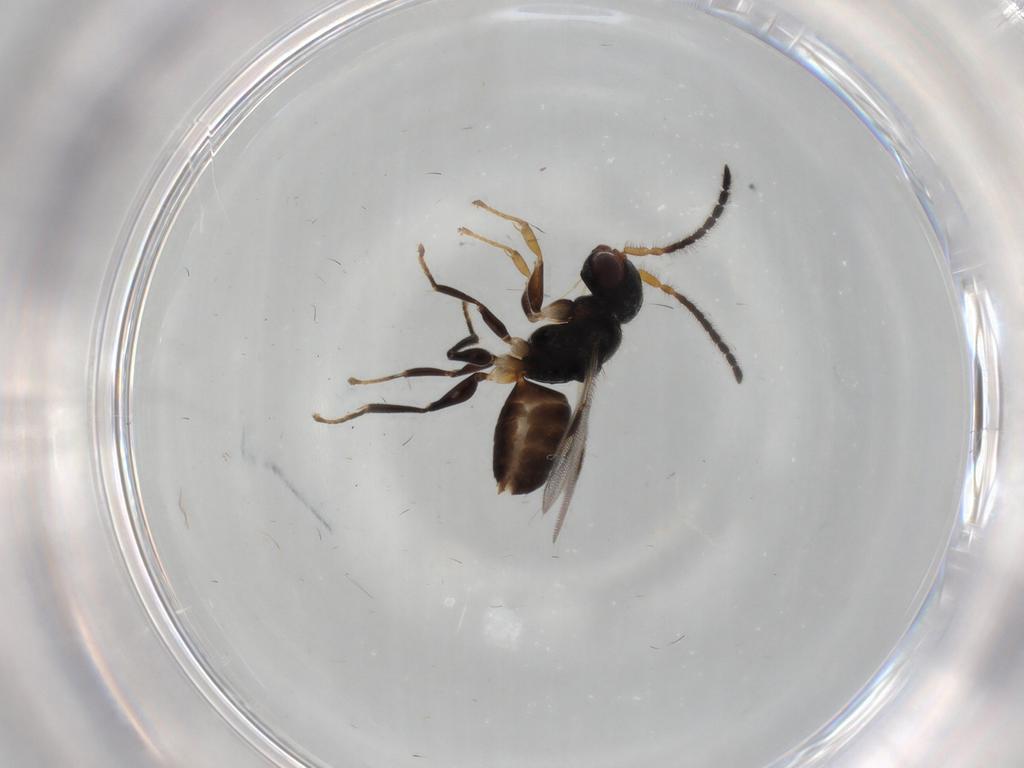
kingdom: Animalia
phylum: Arthropoda
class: Insecta
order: Hymenoptera
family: Dryinidae
